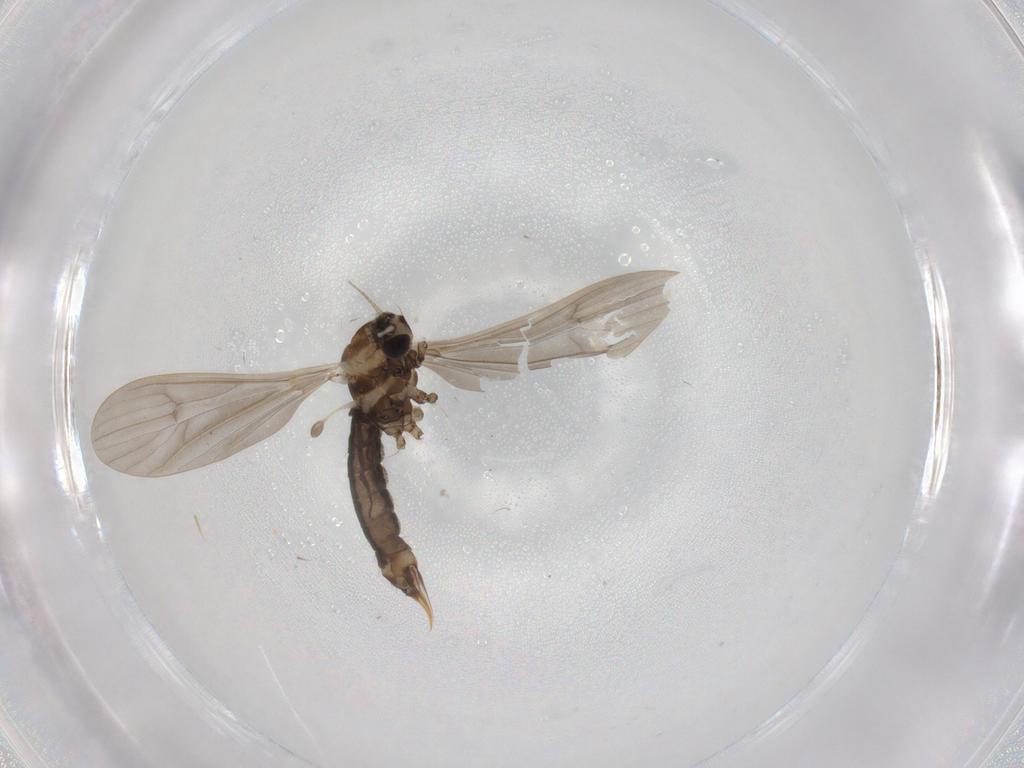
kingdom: Animalia
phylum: Arthropoda
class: Insecta
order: Diptera
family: Limoniidae
